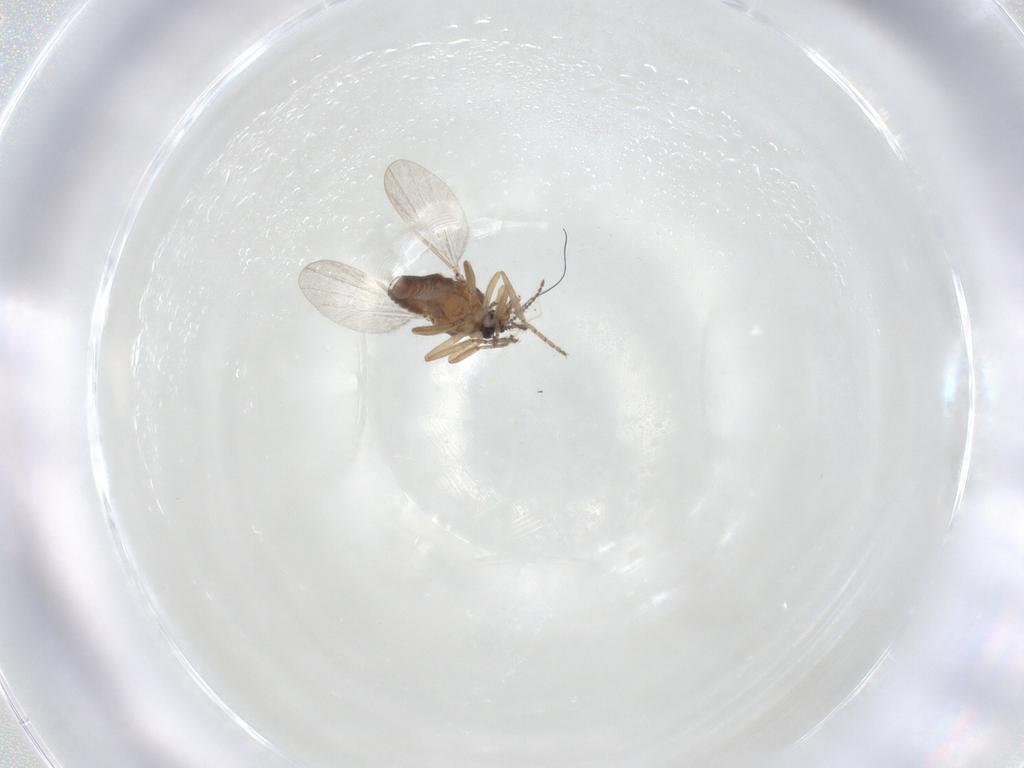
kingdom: Animalia
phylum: Arthropoda
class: Insecta
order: Diptera
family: Ceratopogonidae
